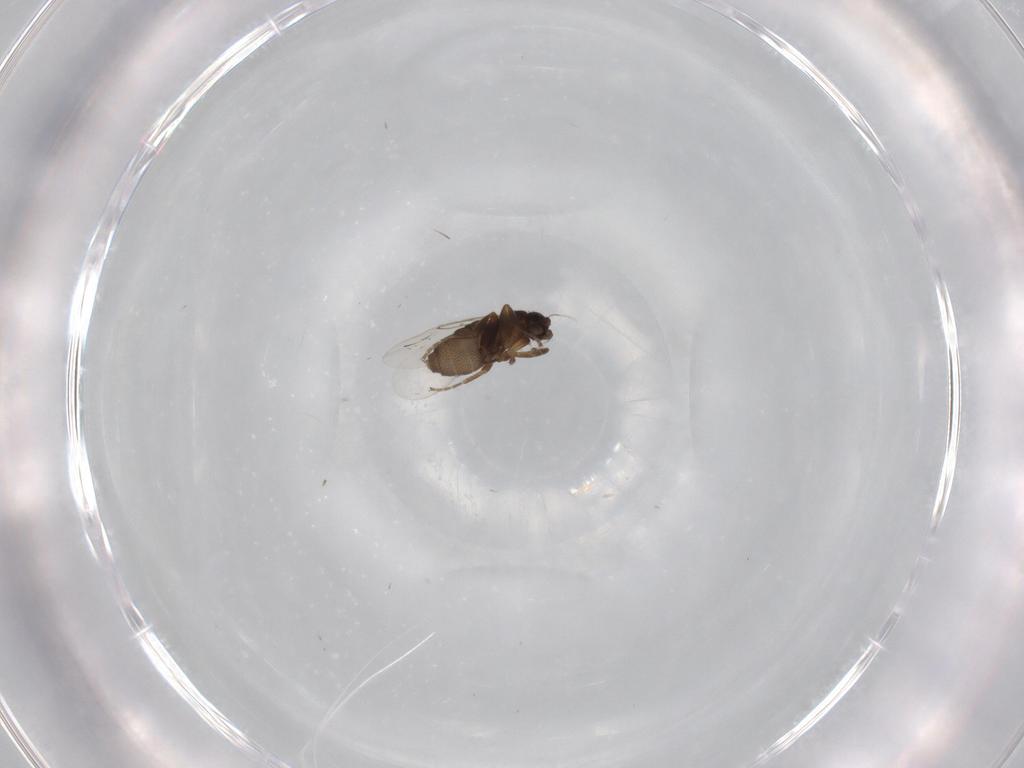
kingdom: Animalia
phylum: Arthropoda
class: Insecta
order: Diptera
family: Phoridae
